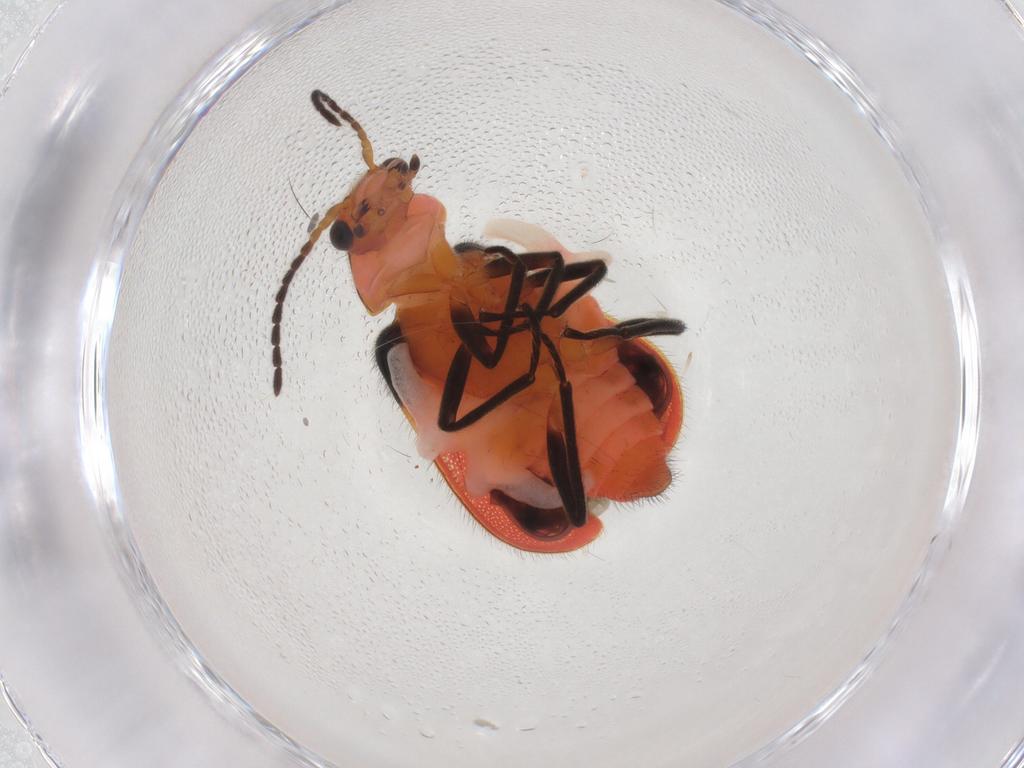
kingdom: Animalia
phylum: Arthropoda
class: Insecta
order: Coleoptera
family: Melyridae
